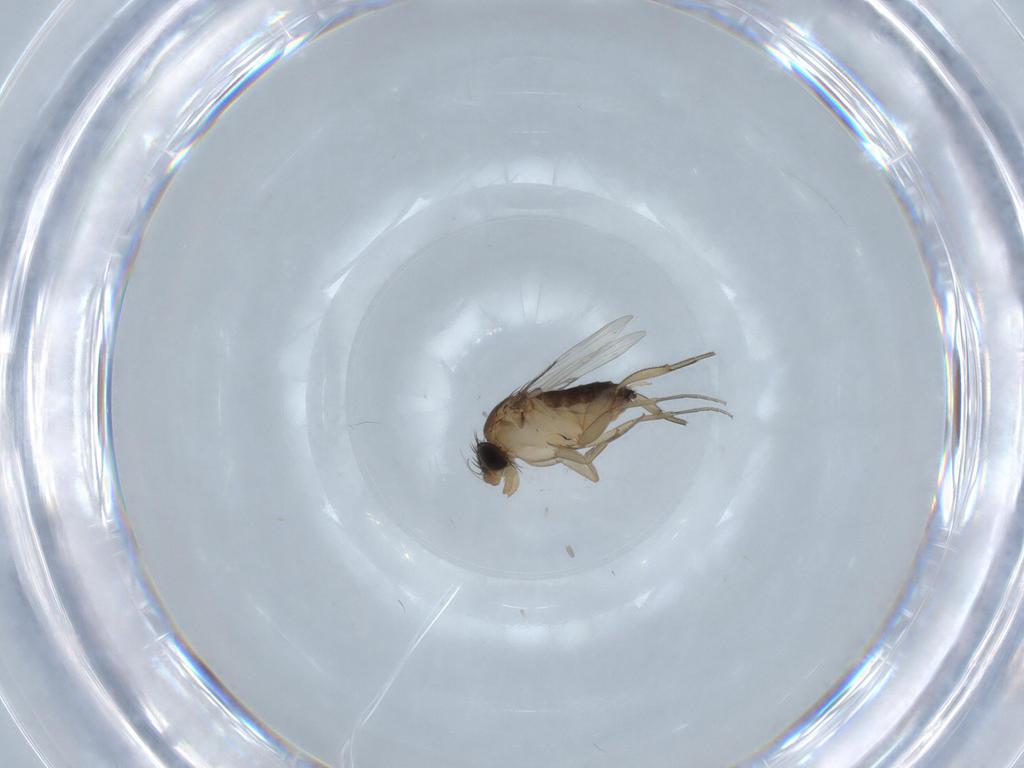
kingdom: Animalia
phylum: Arthropoda
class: Insecta
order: Diptera
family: Cecidomyiidae
